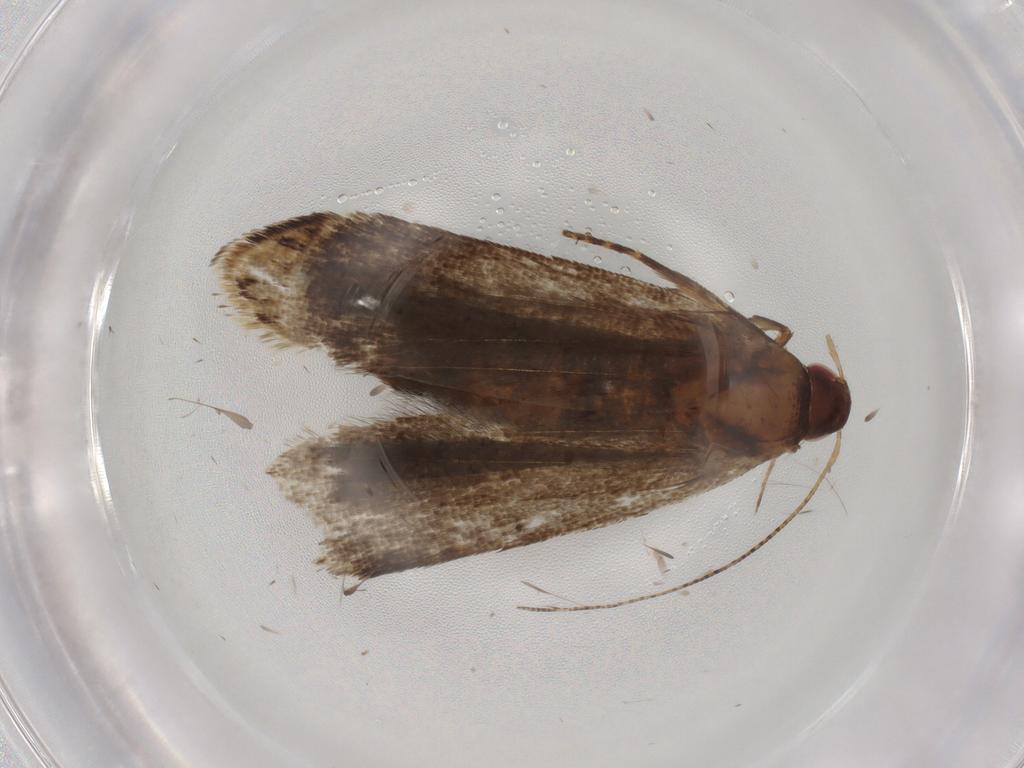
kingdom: Animalia
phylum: Arthropoda
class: Insecta
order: Lepidoptera
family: Gelechiidae
